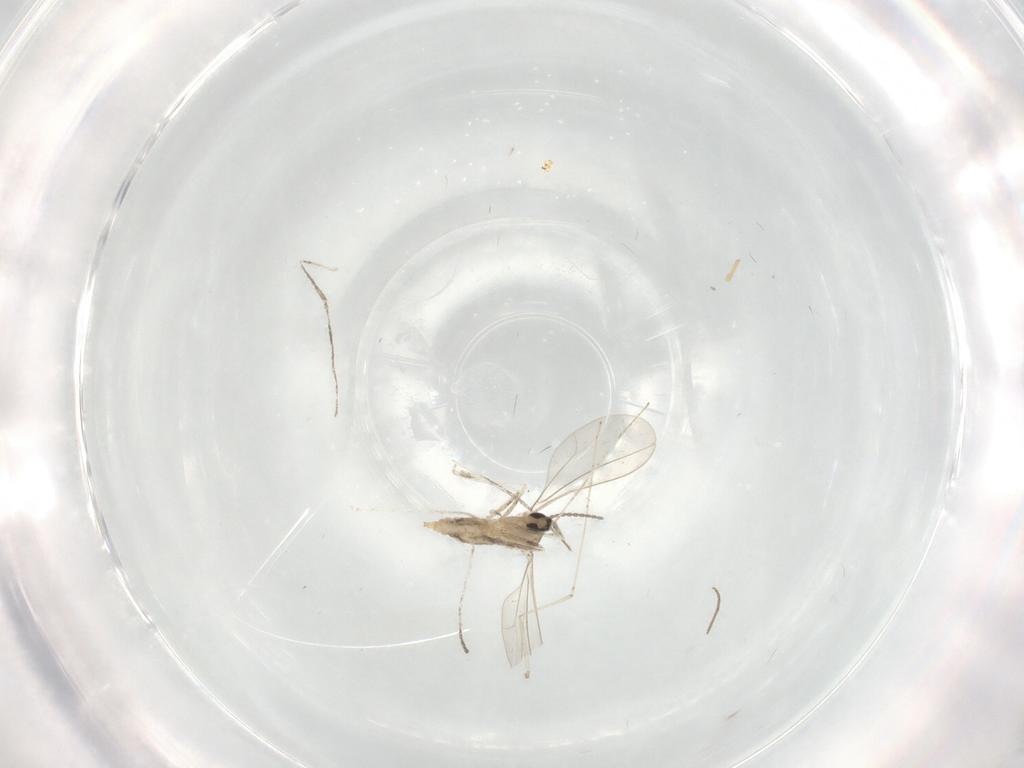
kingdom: Animalia
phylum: Arthropoda
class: Insecta
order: Diptera
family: Cecidomyiidae
